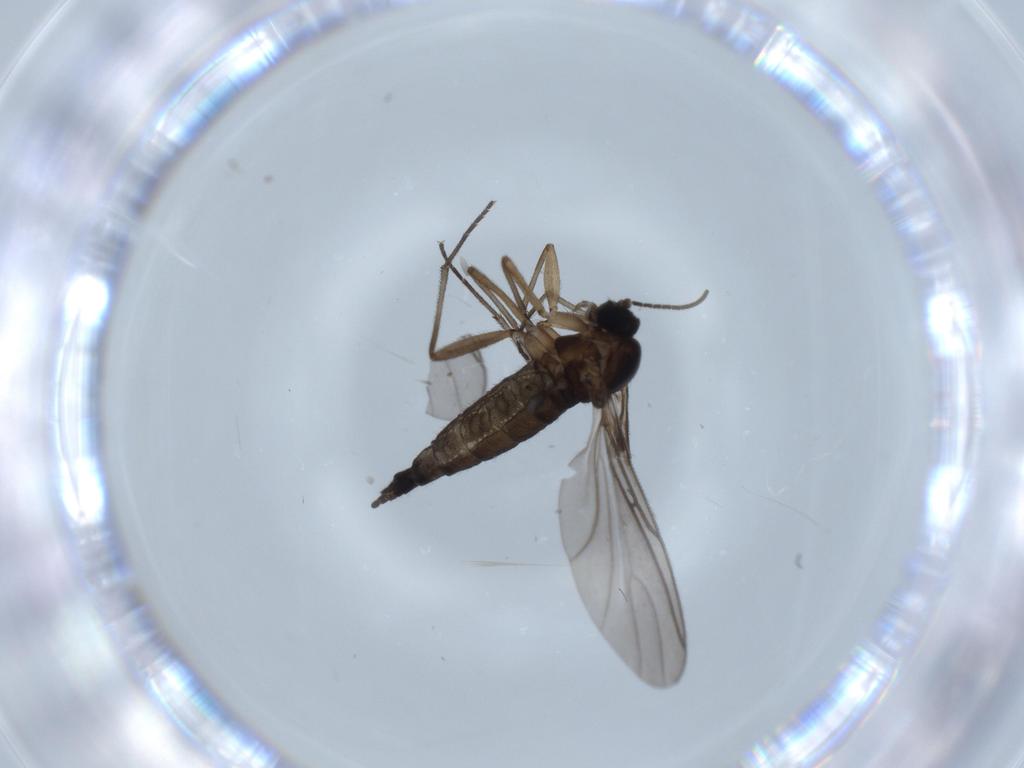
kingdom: Animalia
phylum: Arthropoda
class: Insecta
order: Diptera
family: Sciaridae
